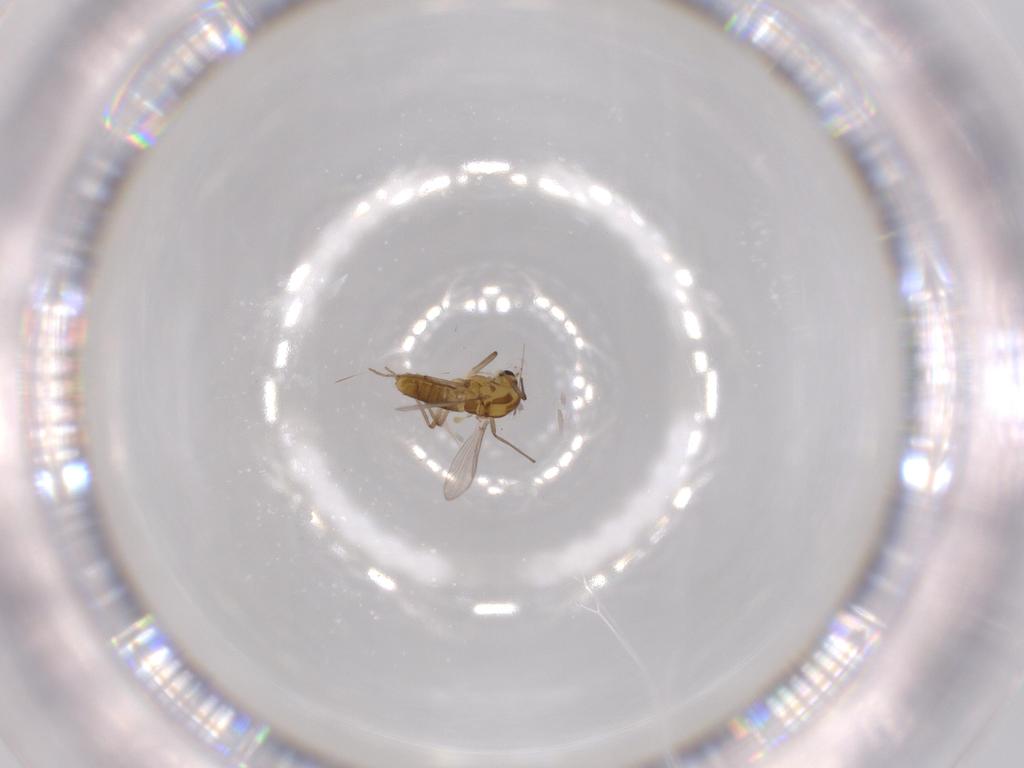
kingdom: Animalia
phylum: Arthropoda
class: Insecta
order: Diptera
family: Chironomidae
